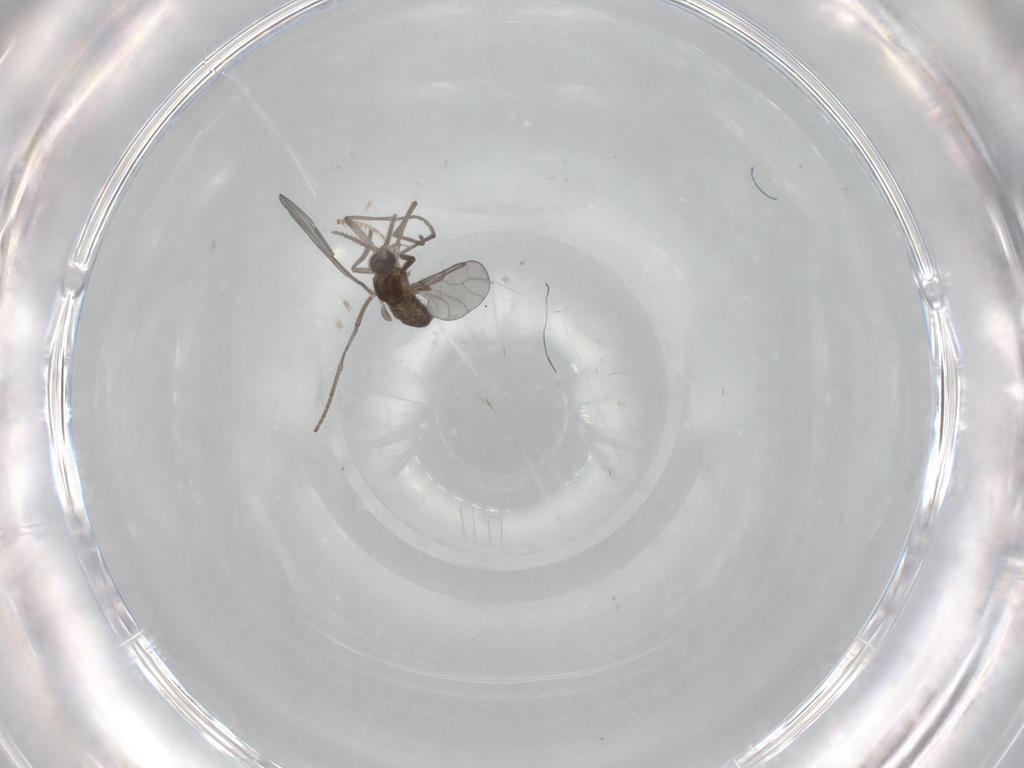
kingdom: Animalia
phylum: Arthropoda
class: Insecta
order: Diptera
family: Ceratopogonidae
